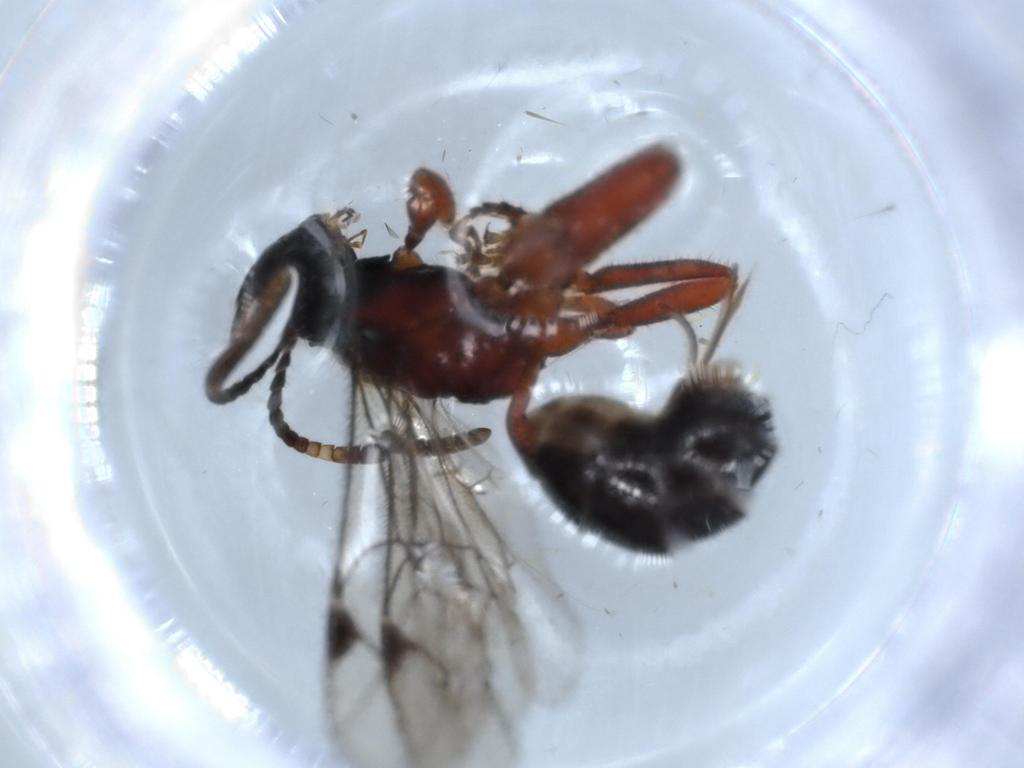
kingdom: Animalia
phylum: Arthropoda
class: Insecta
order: Hymenoptera
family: Ichneumonidae
